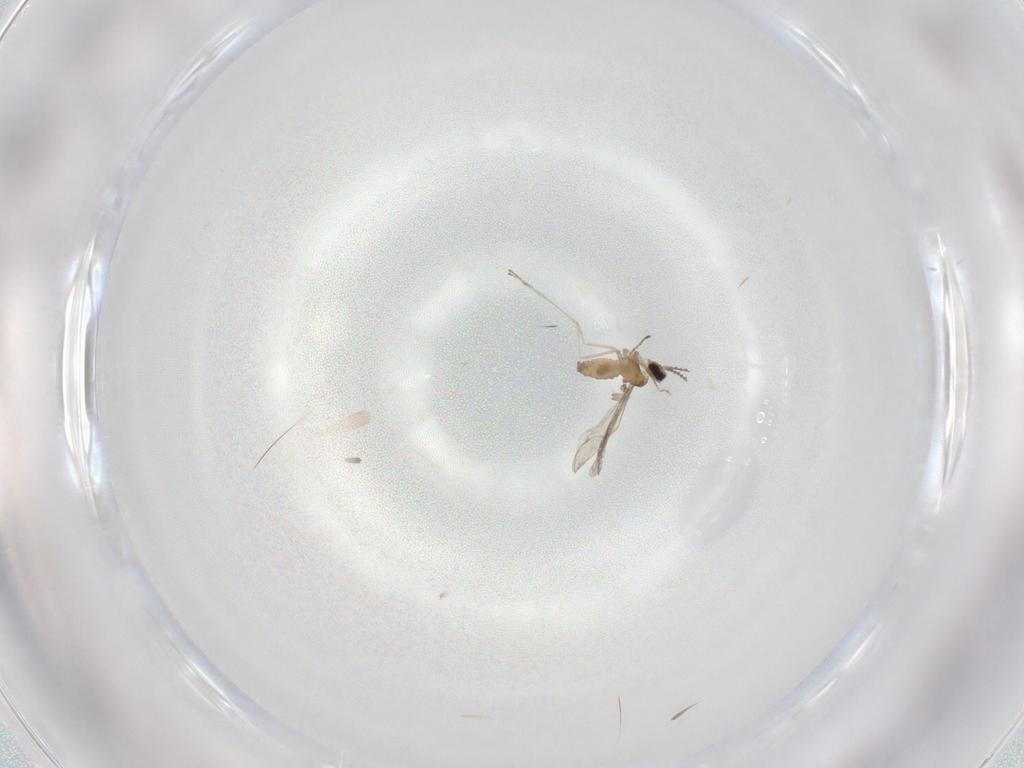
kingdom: Animalia
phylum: Arthropoda
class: Insecta
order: Diptera
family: Cecidomyiidae
